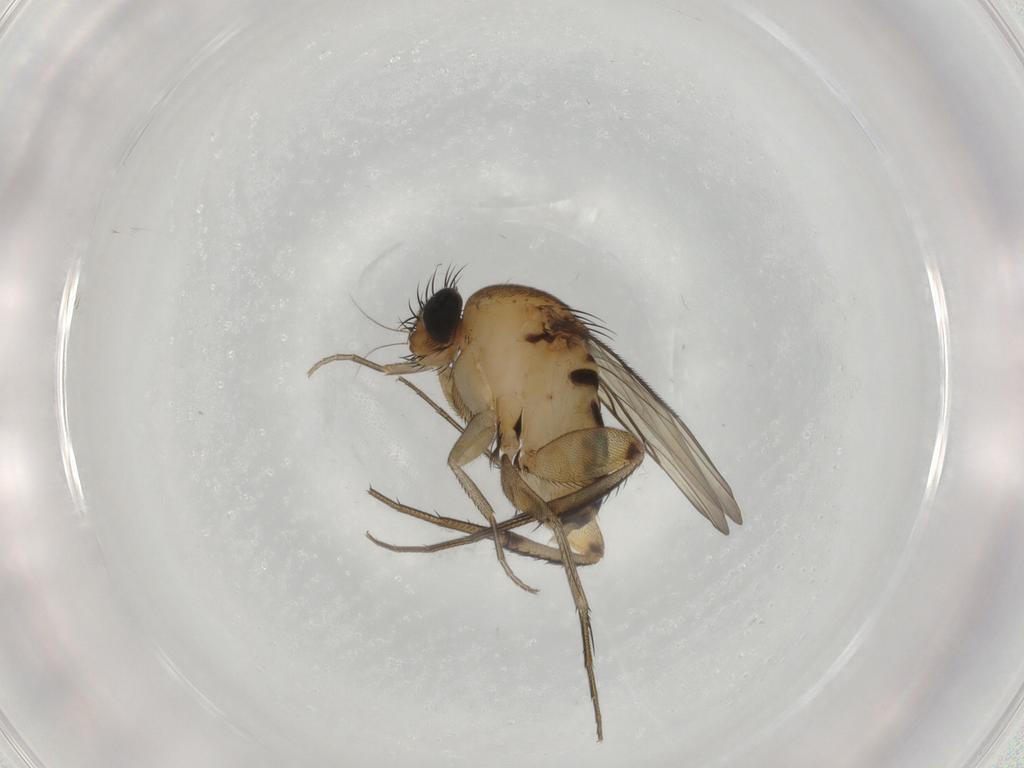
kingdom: Animalia
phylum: Arthropoda
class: Insecta
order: Diptera
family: Phoridae
